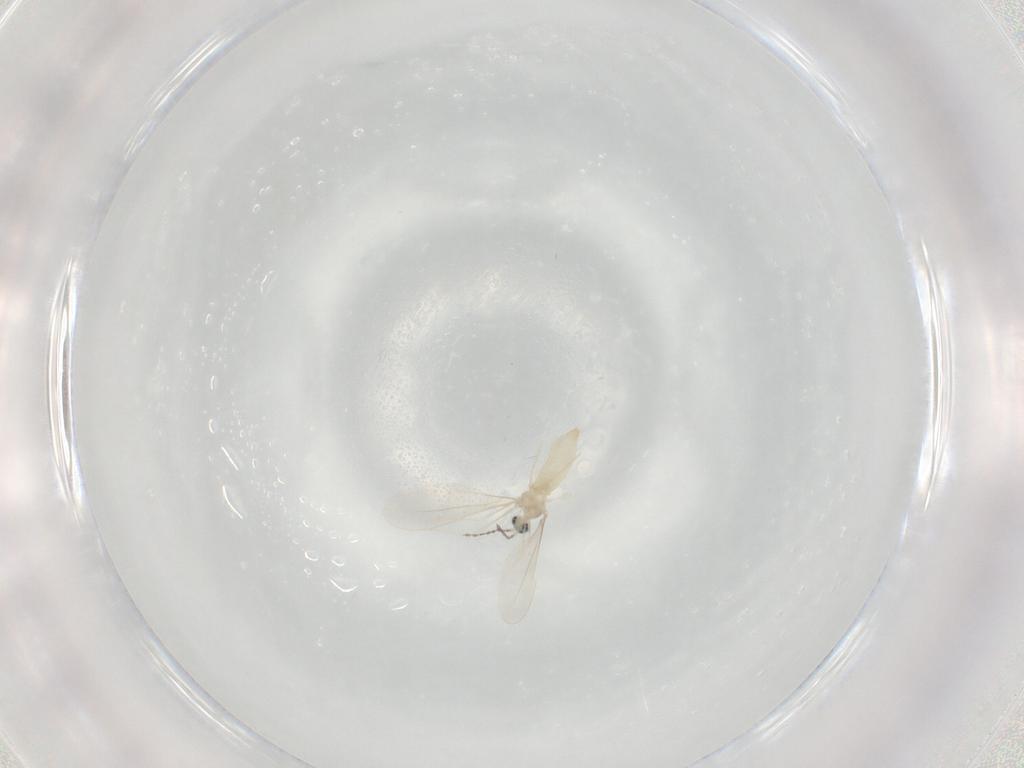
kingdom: Animalia
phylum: Arthropoda
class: Insecta
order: Diptera
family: Cecidomyiidae
